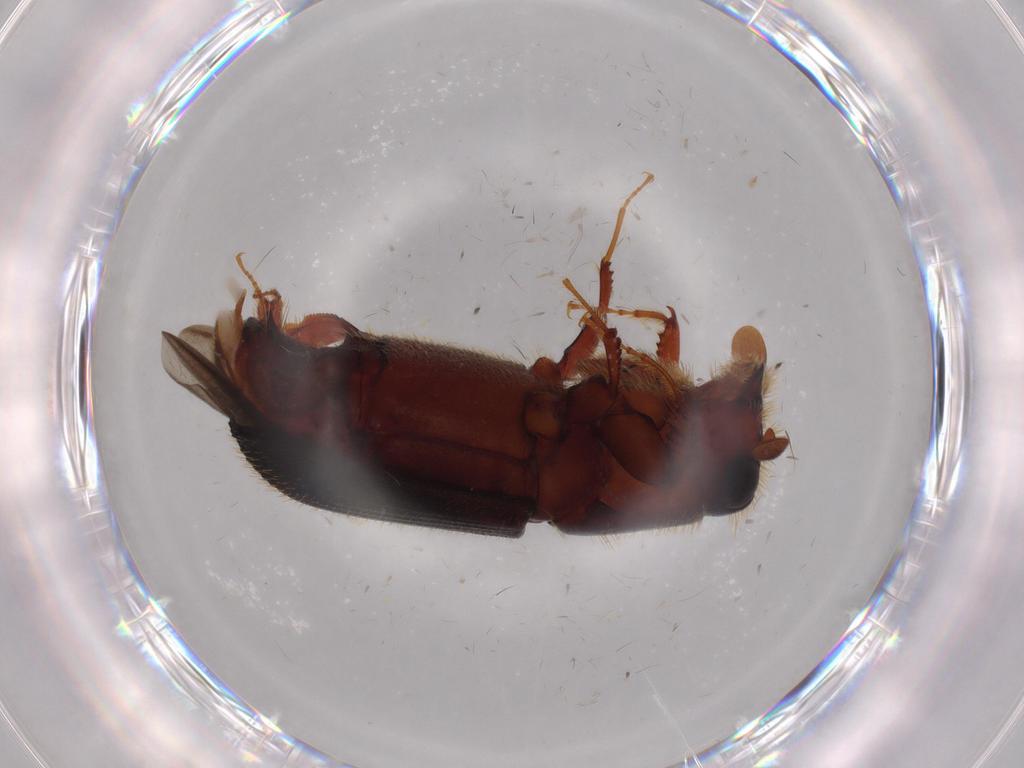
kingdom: Animalia
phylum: Arthropoda
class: Insecta
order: Coleoptera
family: Curculionidae
